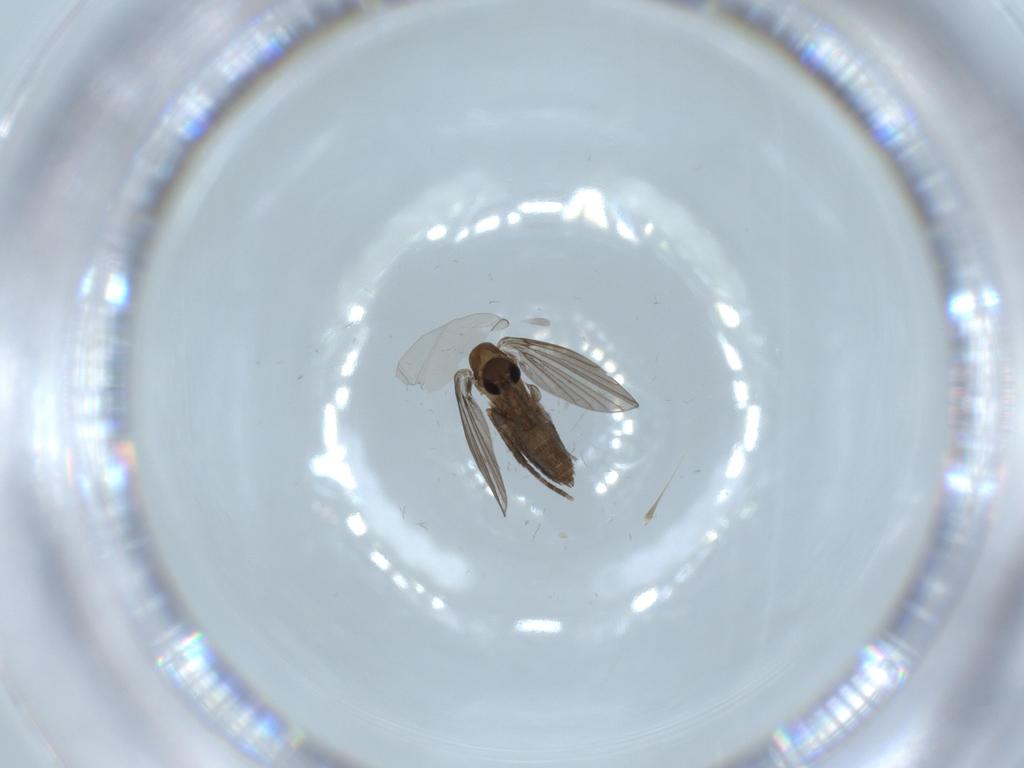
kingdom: Animalia
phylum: Arthropoda
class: Insecta
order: Diptera
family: Psychodidae
